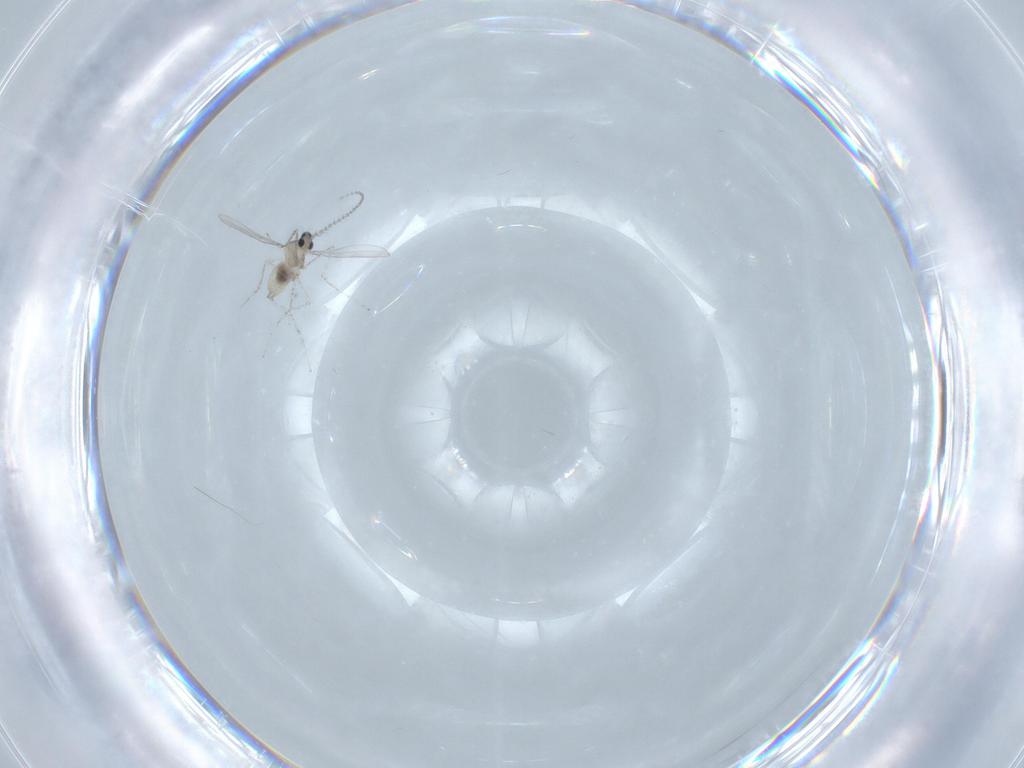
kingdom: Animalia
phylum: Arthropoda
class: Insecta
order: Diptera
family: Cecidomyiidae
